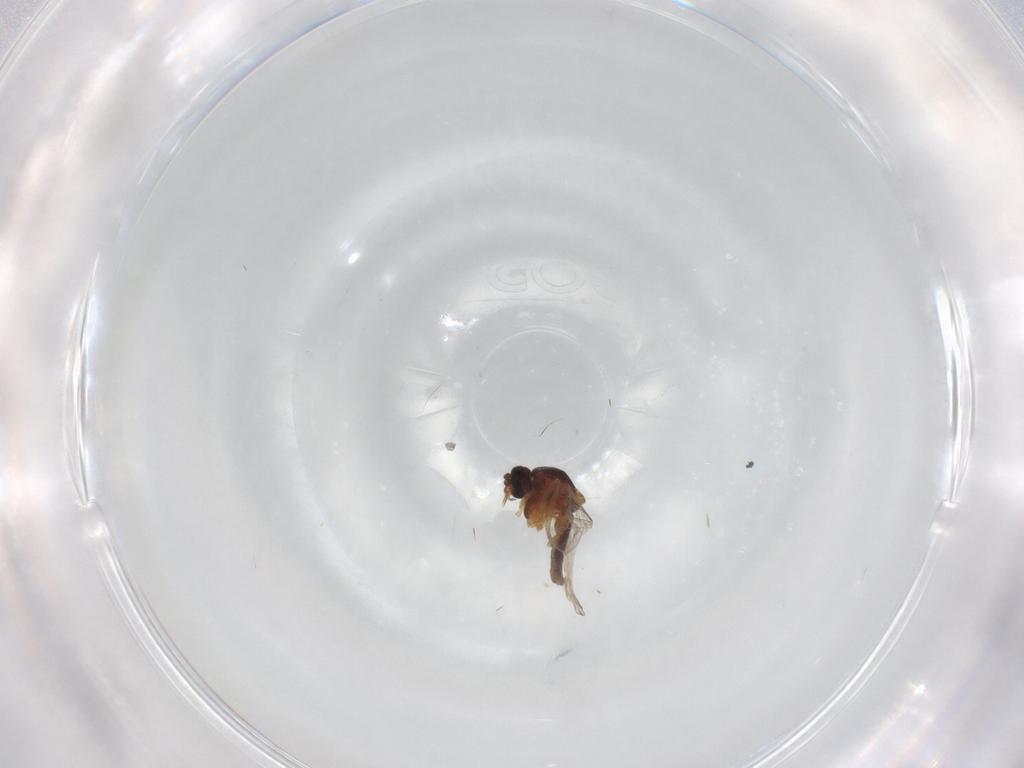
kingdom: Animalia
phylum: Arthropoda
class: Insecta
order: Diptera
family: Ceratopogonidae
